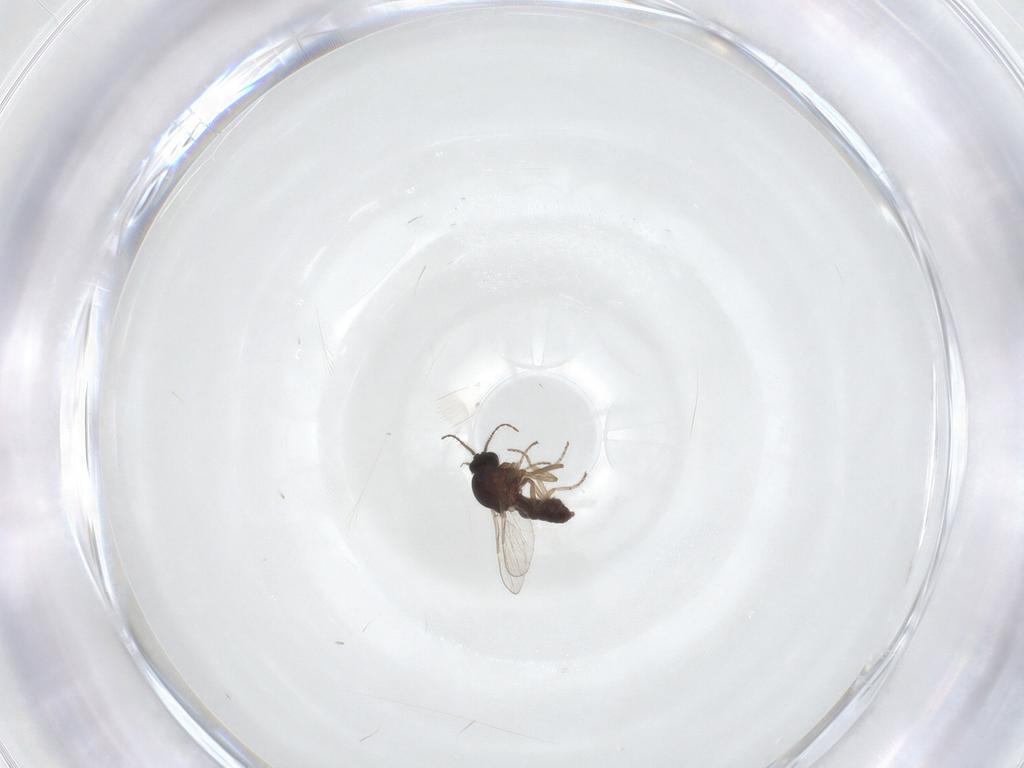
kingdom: Animalia
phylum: Arthropoda
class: Insecta
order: Diptera
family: Ceratopogonidae
